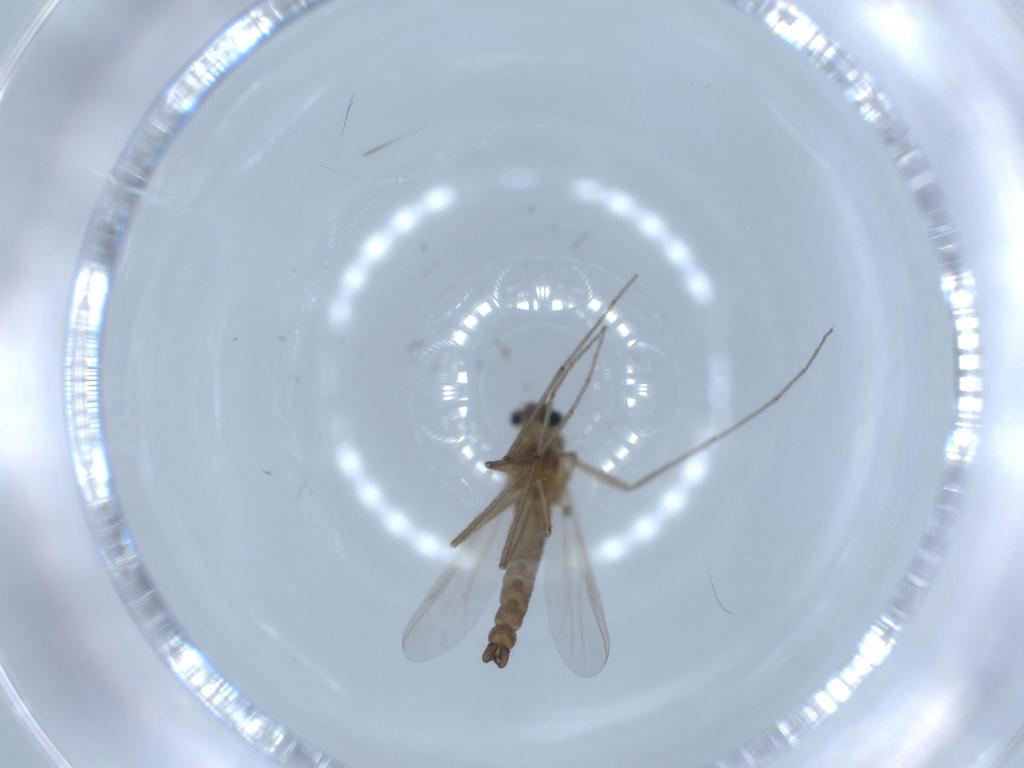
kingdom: Animalia
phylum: Arthropoda
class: Insecta
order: Diptera
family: Chironomidae
